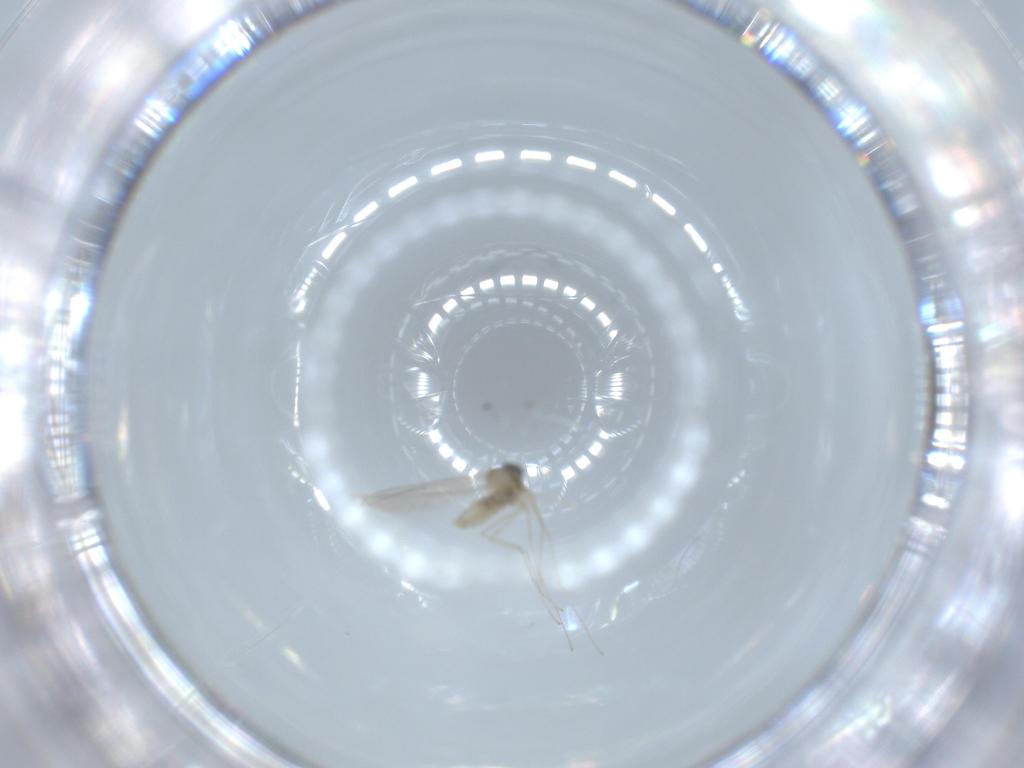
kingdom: Animalia
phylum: Arthropoda
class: Insecta
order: Diptera
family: Cecidomyiidae
